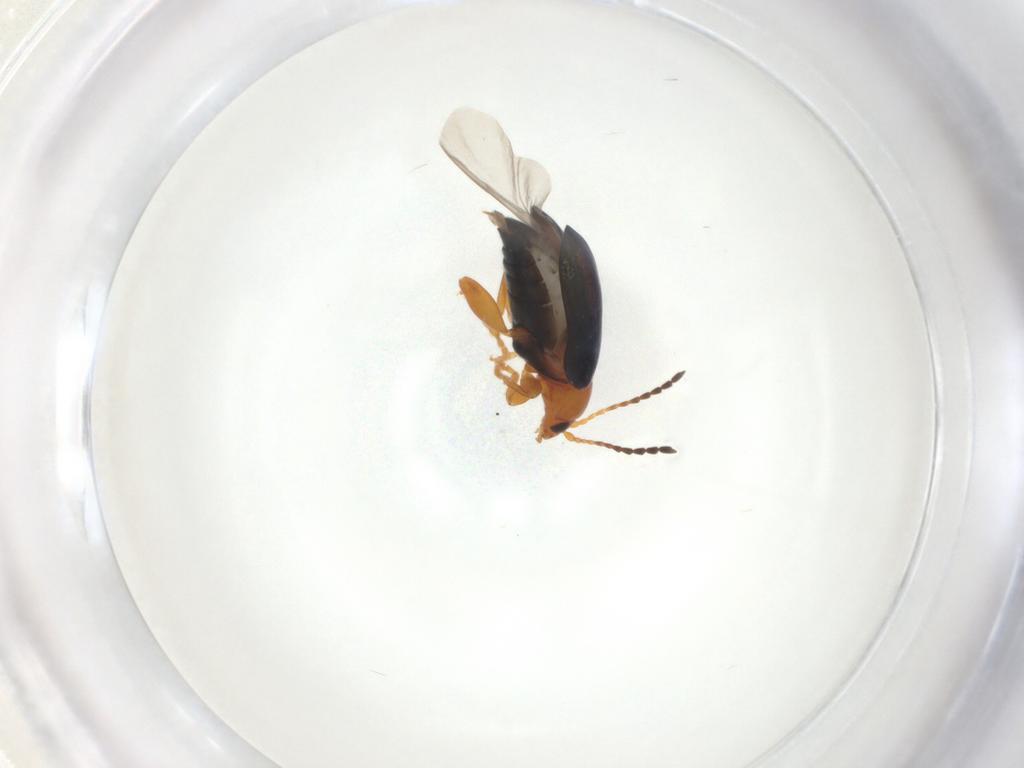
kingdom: Animalia
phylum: Arthropoda
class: Insecta
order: Coleoptera
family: Chrysomelidae
